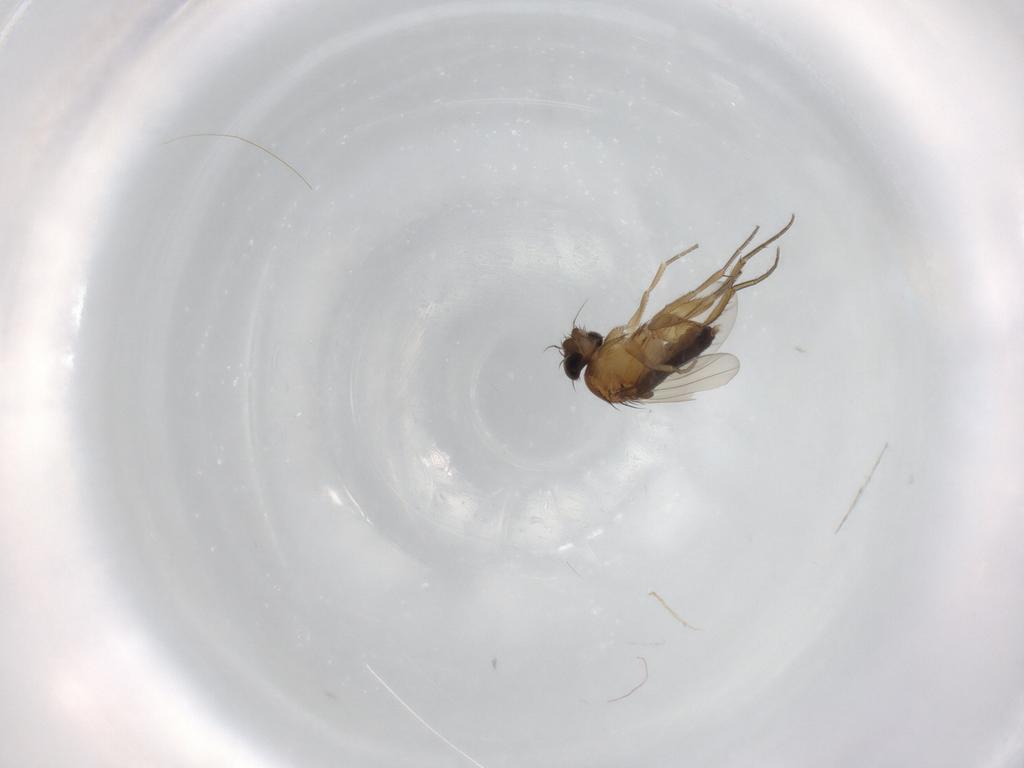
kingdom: Animalia
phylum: Arthropoda
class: Insecta
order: Diptera
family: Phoridae
